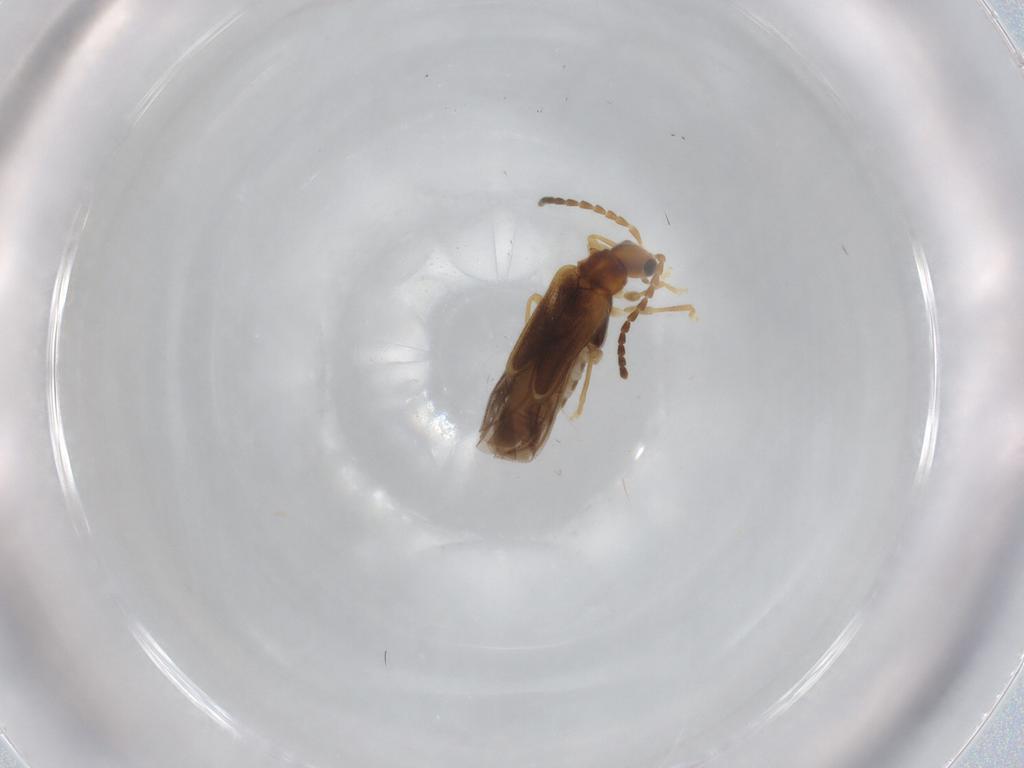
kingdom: Animalia
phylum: Arthropoda
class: Insecta
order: Coleoptera
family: Cantharidae
